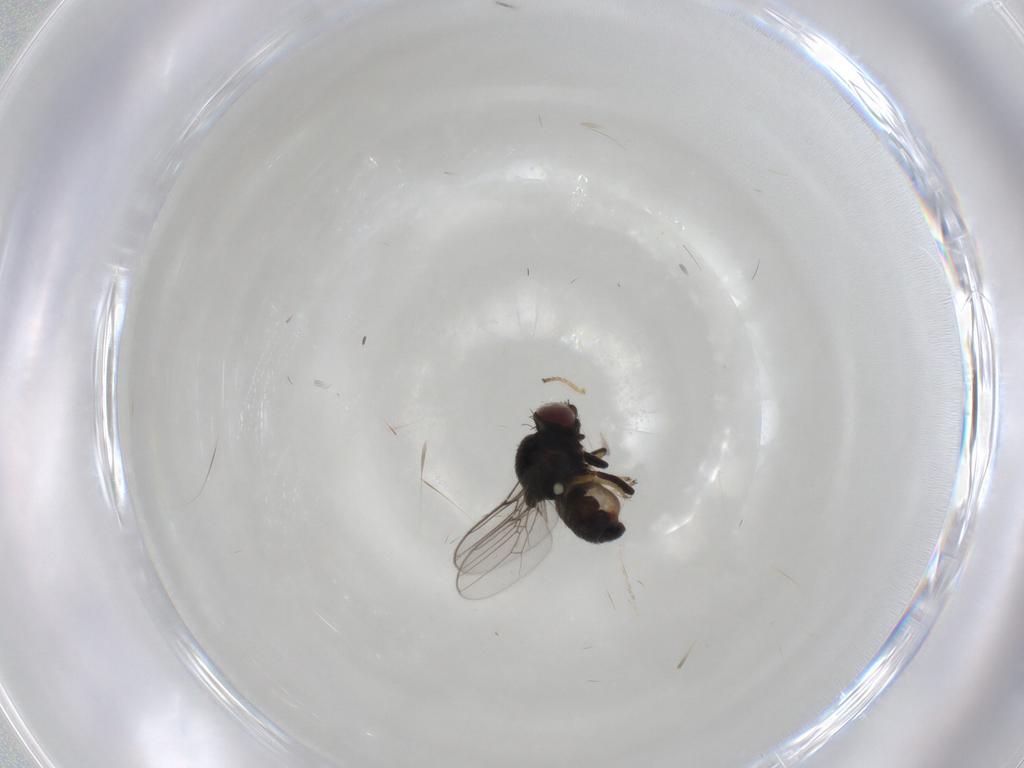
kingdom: Animalia
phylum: Arthropoda
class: Insecta
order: Diptera
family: Chloropidae
